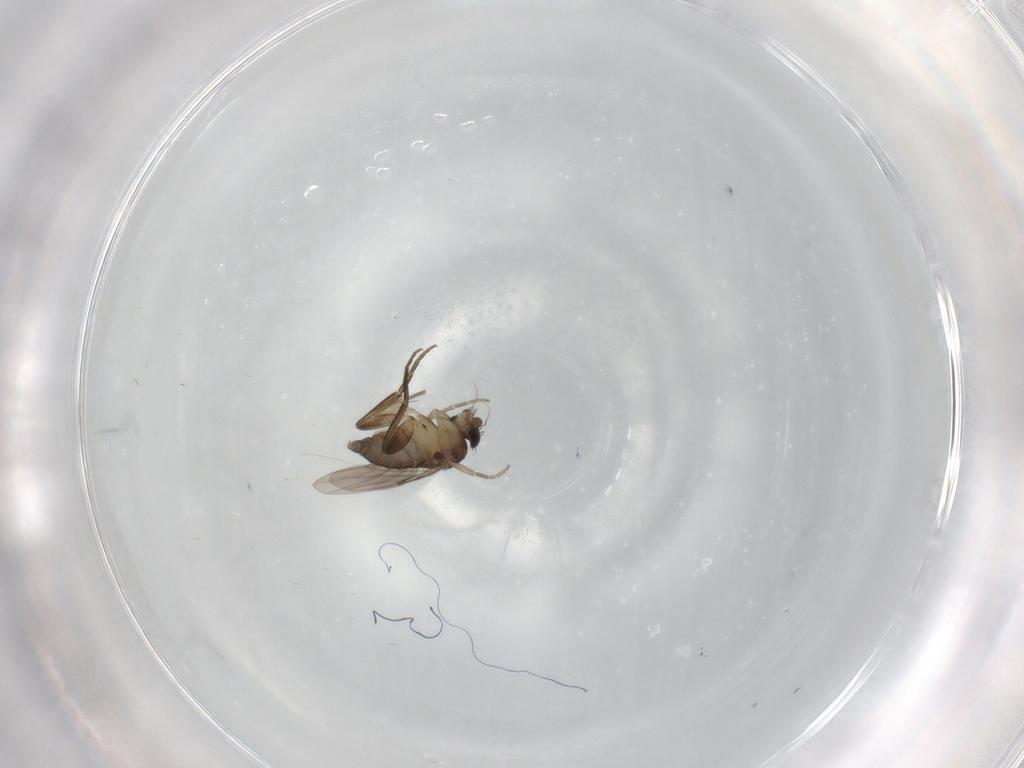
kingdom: Animalia
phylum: Arthropoda
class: Insecta
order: Diptera
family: Phoridae
